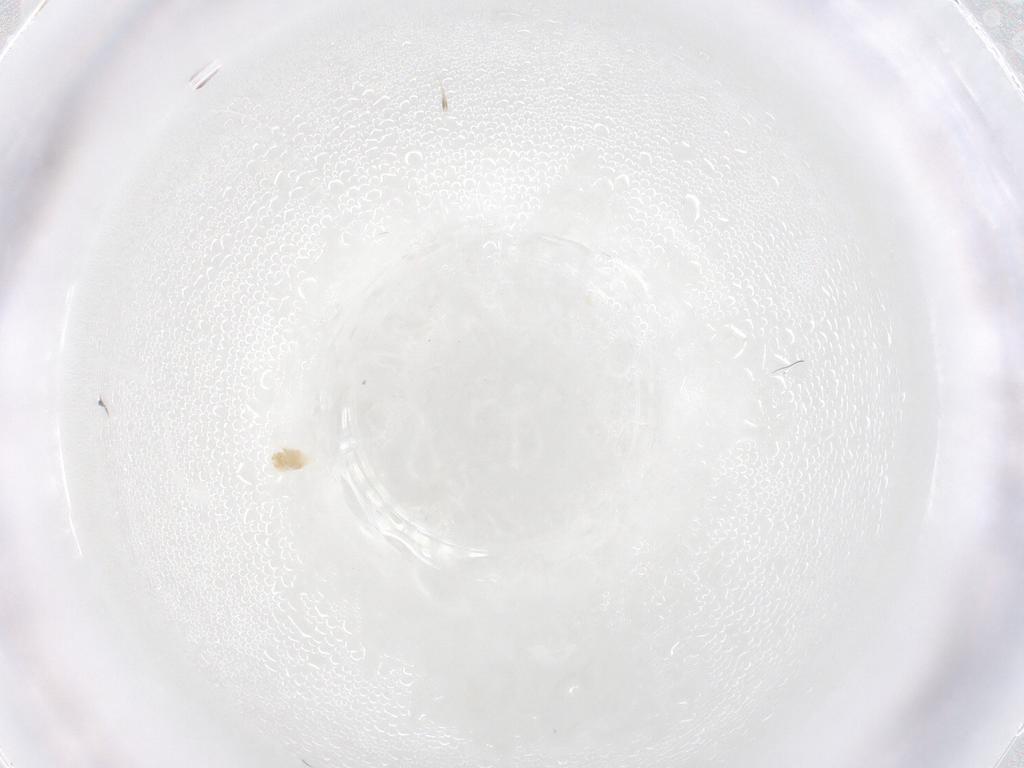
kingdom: Animalia
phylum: Arthropoda
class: Arachnida
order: Trombidiformes
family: Eupodidae
